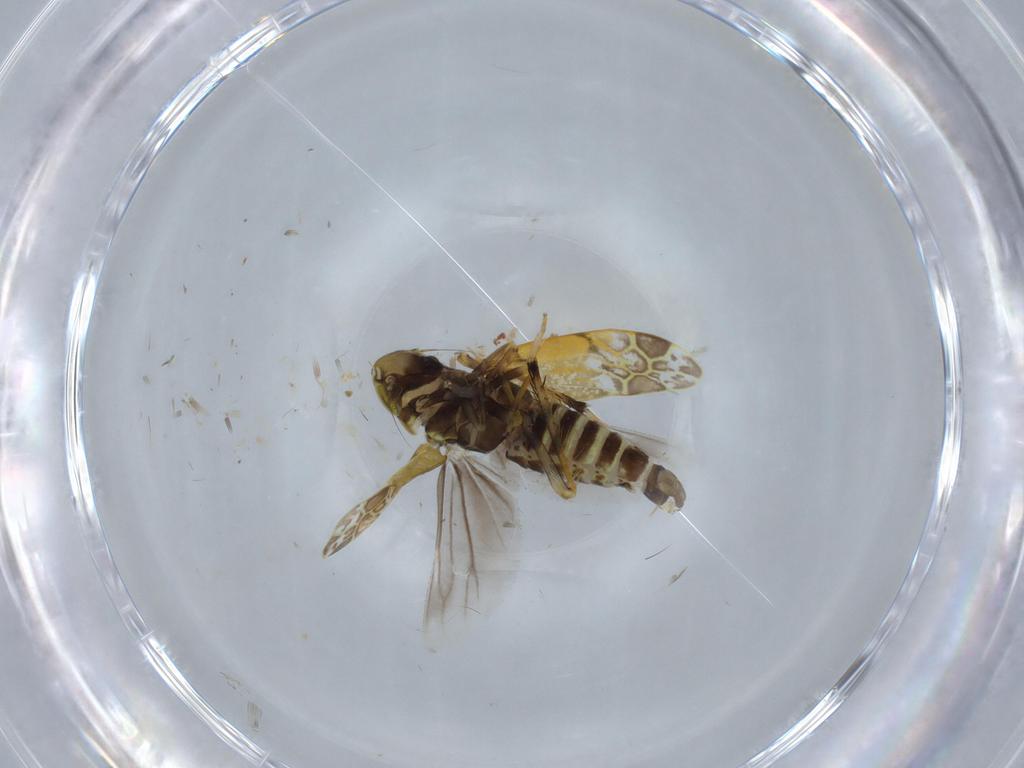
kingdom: Animalia
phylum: Arthropoda
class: Insecta
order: Hemiptera
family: Cicadellidae
